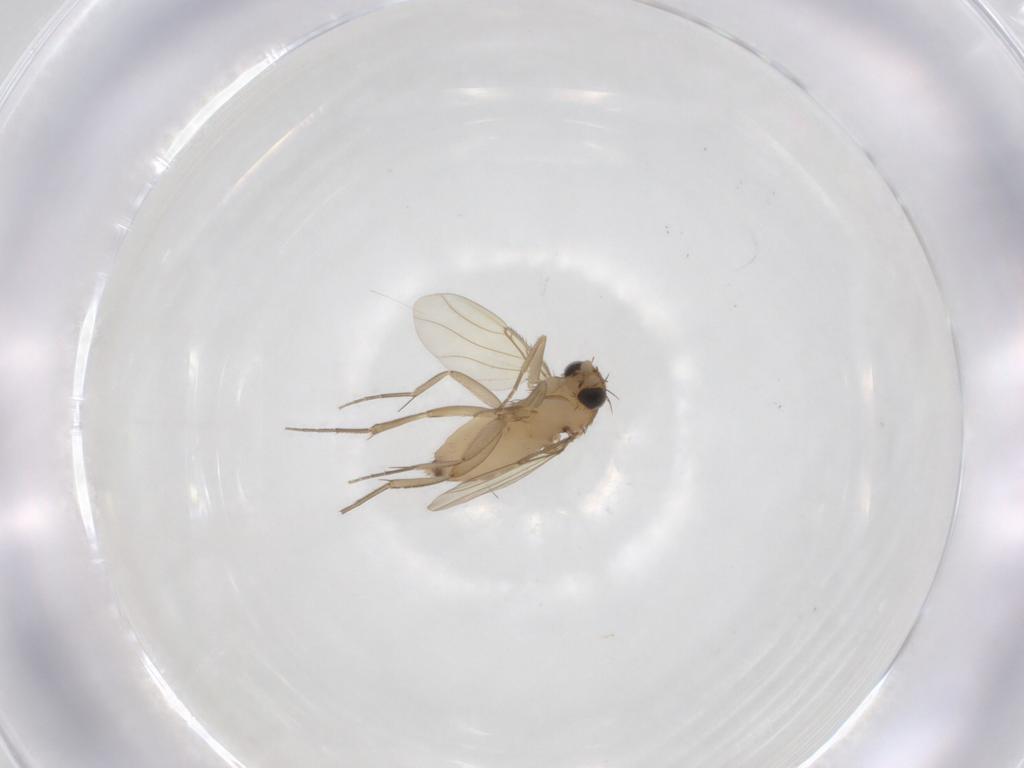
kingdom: Animalia
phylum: Arthropoda
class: Insecta
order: Diptera
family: Phoridae
